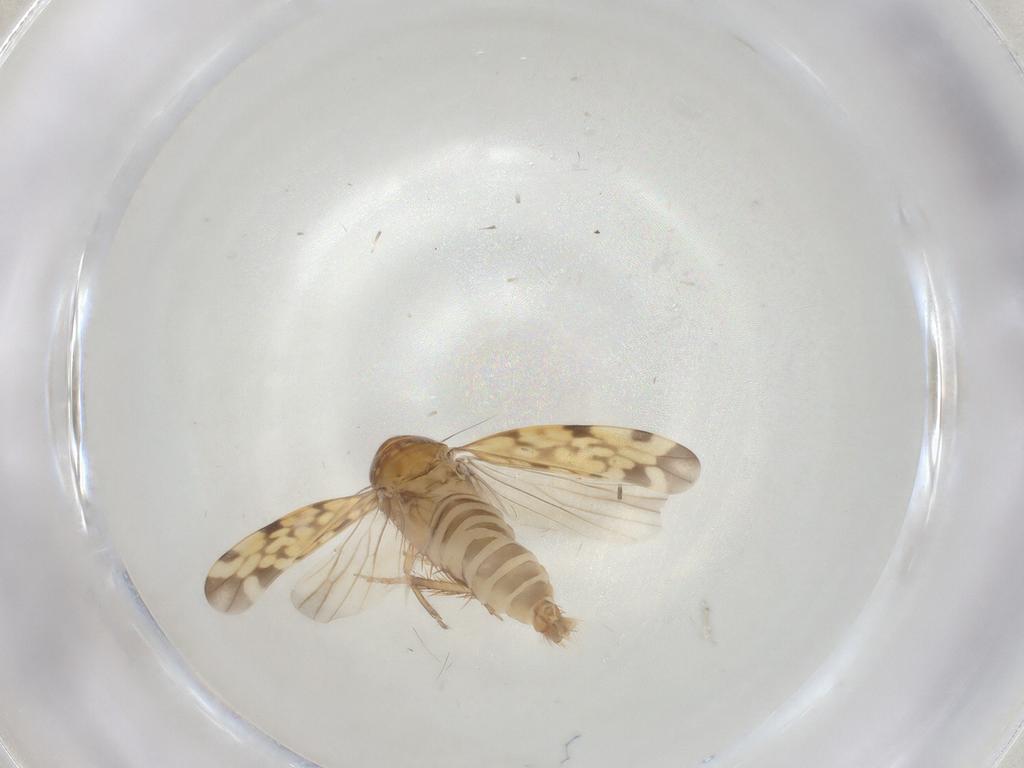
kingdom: Animalia
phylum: Arthropoda
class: Insecta
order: Hemiptera
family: Cicadellidae
